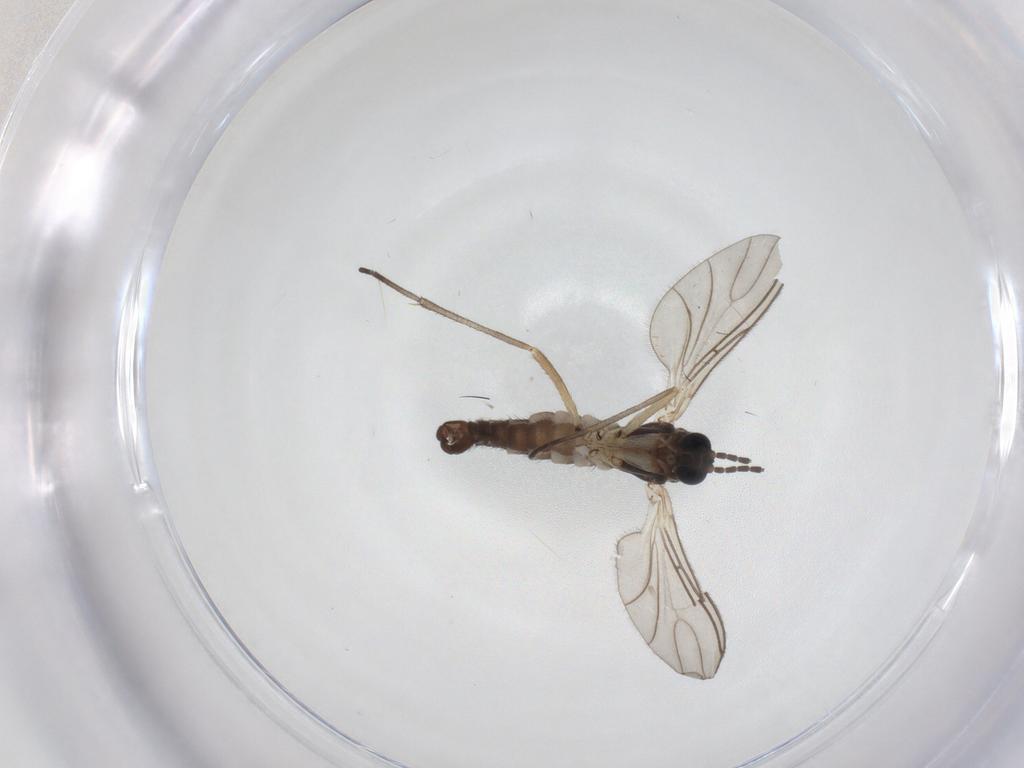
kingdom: Animalia
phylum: Arthropoda
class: Insecta
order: Diptera
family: Sciaridae
